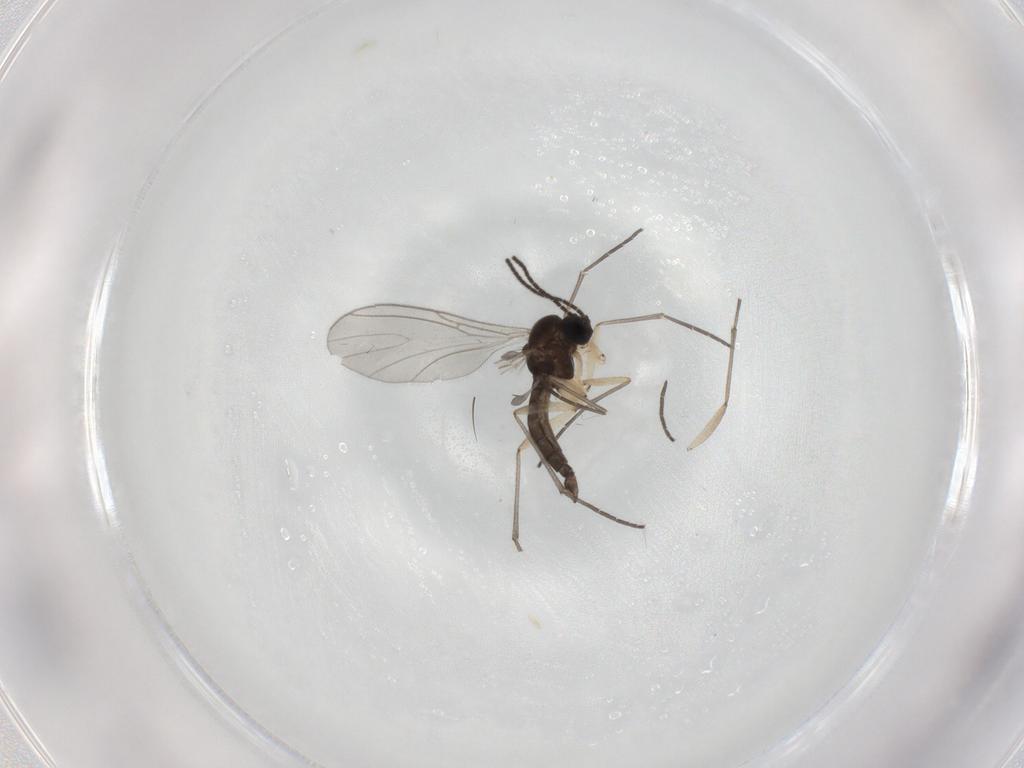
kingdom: Animalia
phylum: Arthropoda
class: Insecta
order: Diptera
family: Sciaridae
